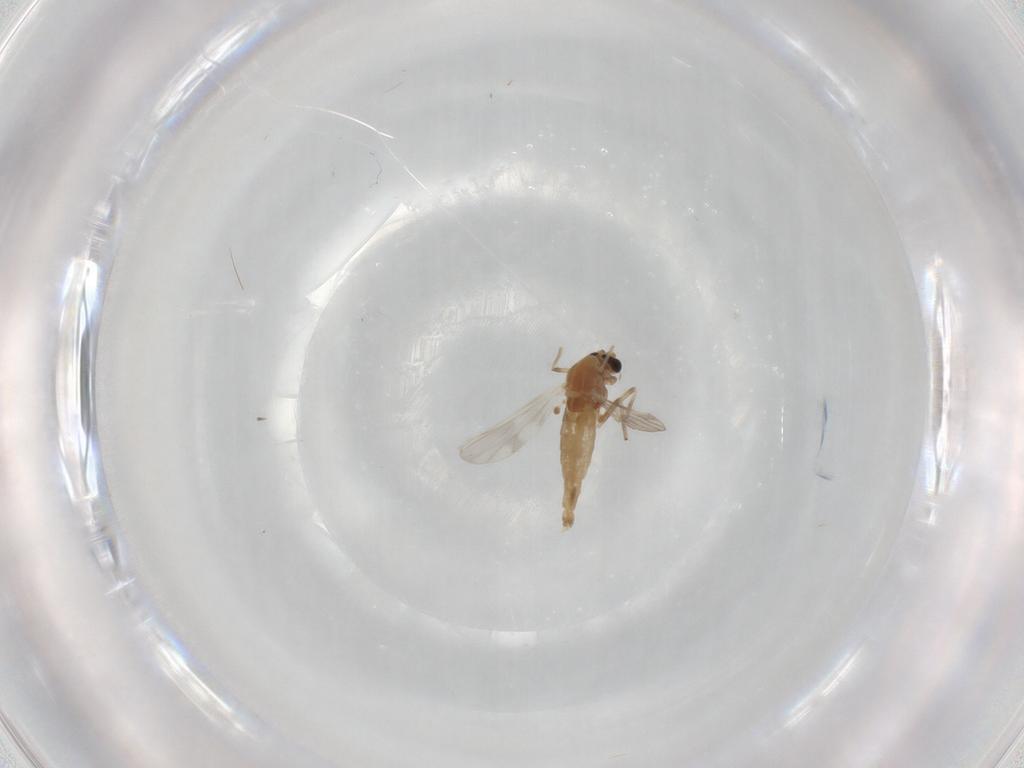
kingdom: Animalia
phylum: Arthropoda
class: Insecta
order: Diptera
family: Chironomidae
